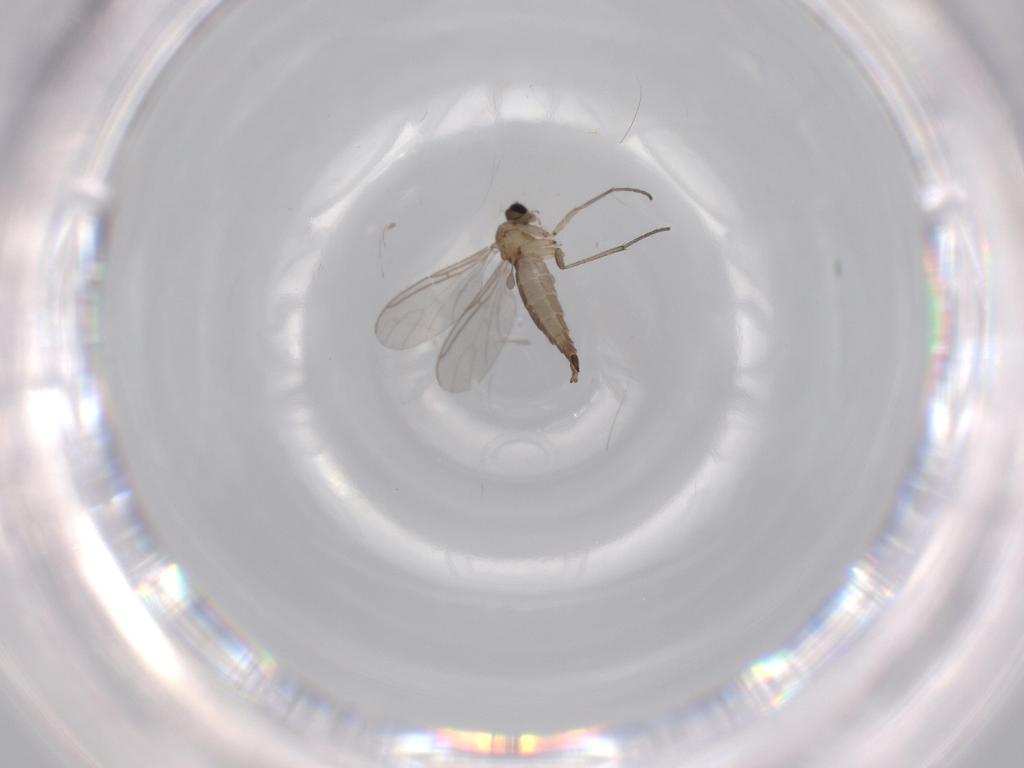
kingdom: Animalia
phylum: Arthropoda
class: Insecta
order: Diptera
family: Sciaridae
